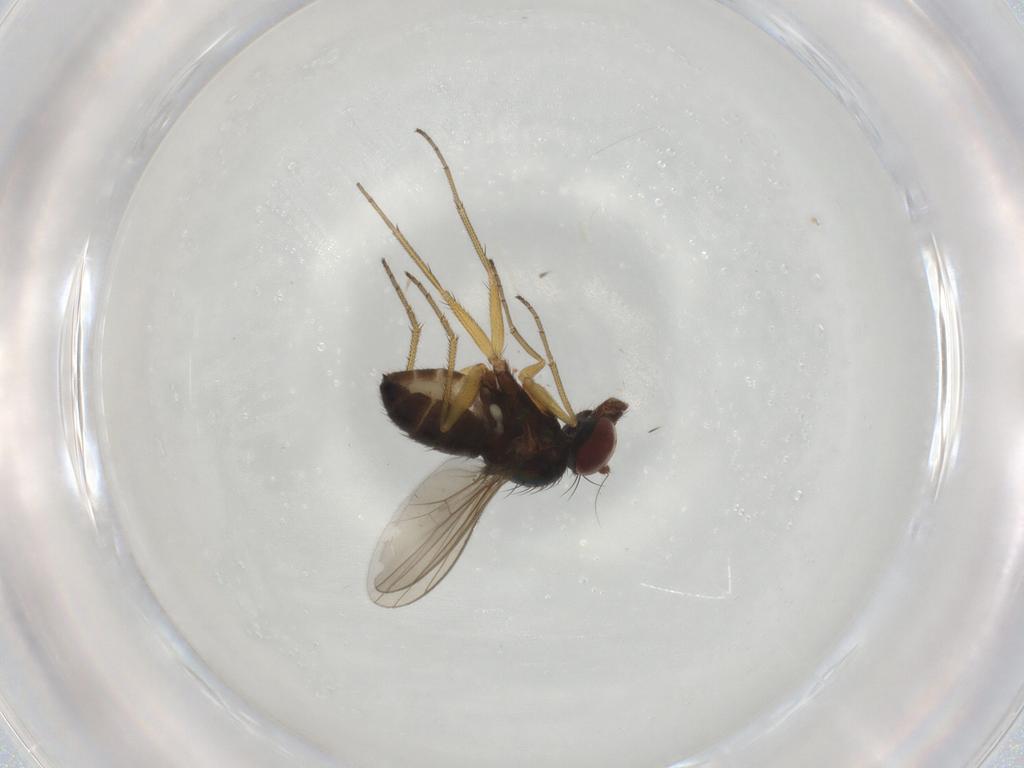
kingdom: Animalia
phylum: Arthropoda
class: Insecta
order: Diptera
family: Dolichopodidae
